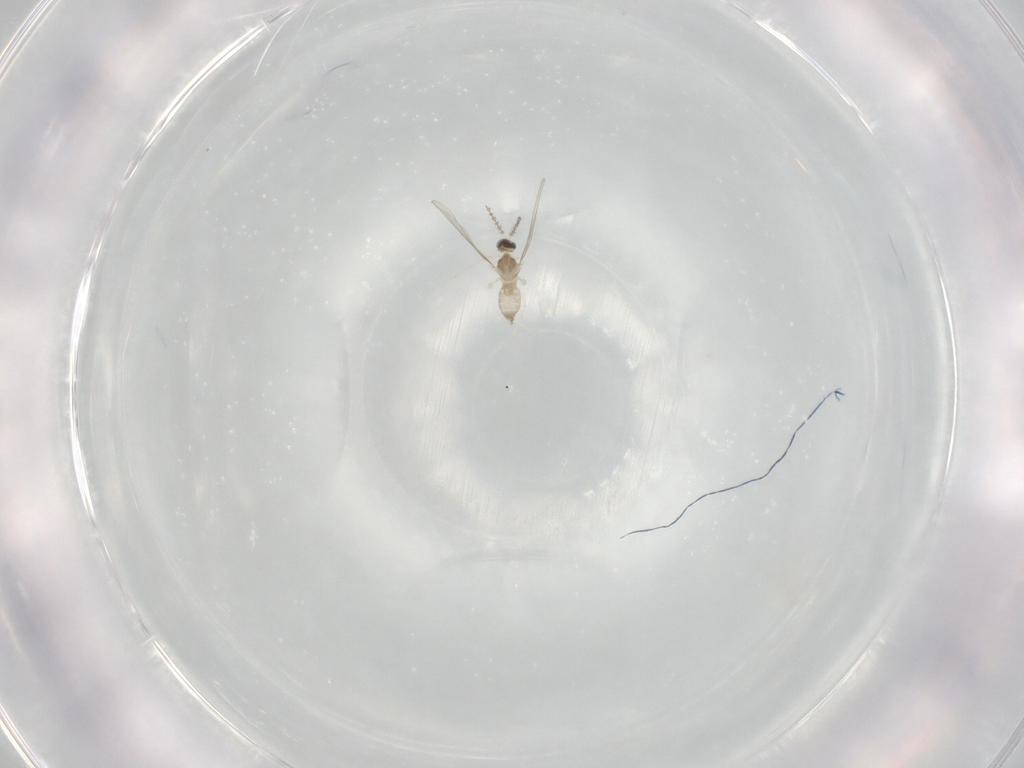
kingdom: Animalia
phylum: Arthropoda
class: Insecta
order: Diptera
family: Cecidomyiidae
